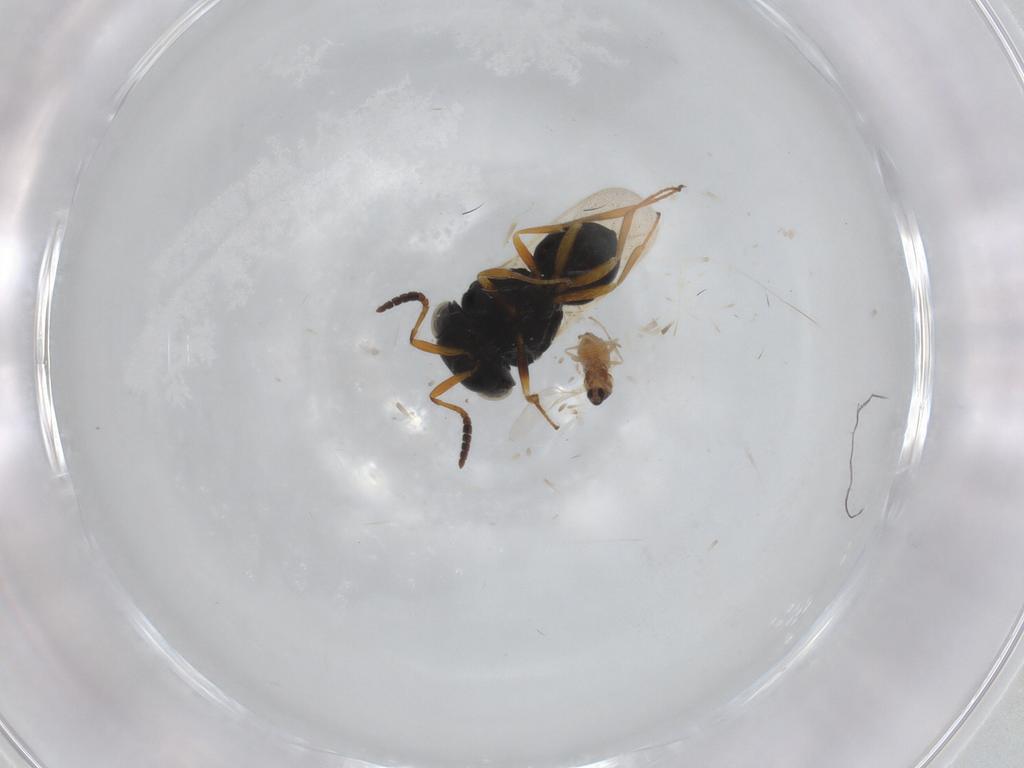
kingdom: Animalia
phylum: Arthropoda
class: Insecta
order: Diptera
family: Cecidomyiidae
